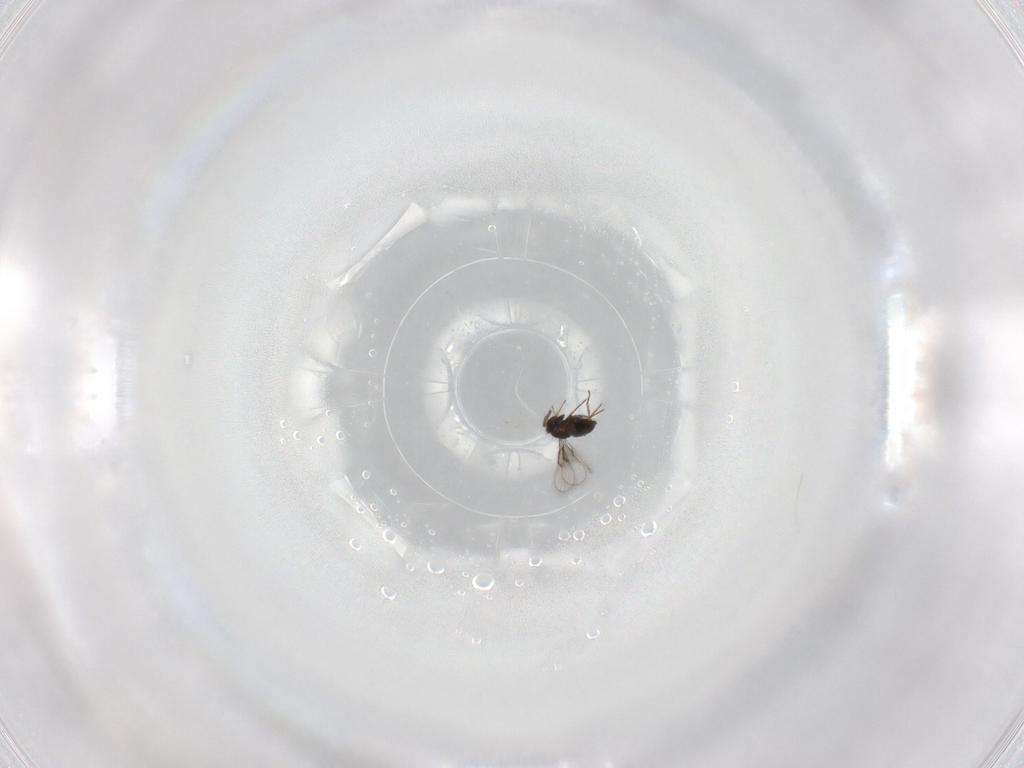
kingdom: Animalia
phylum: Arthropoda
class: Insecta
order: Hymenoptera
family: Trichogrammatidae
